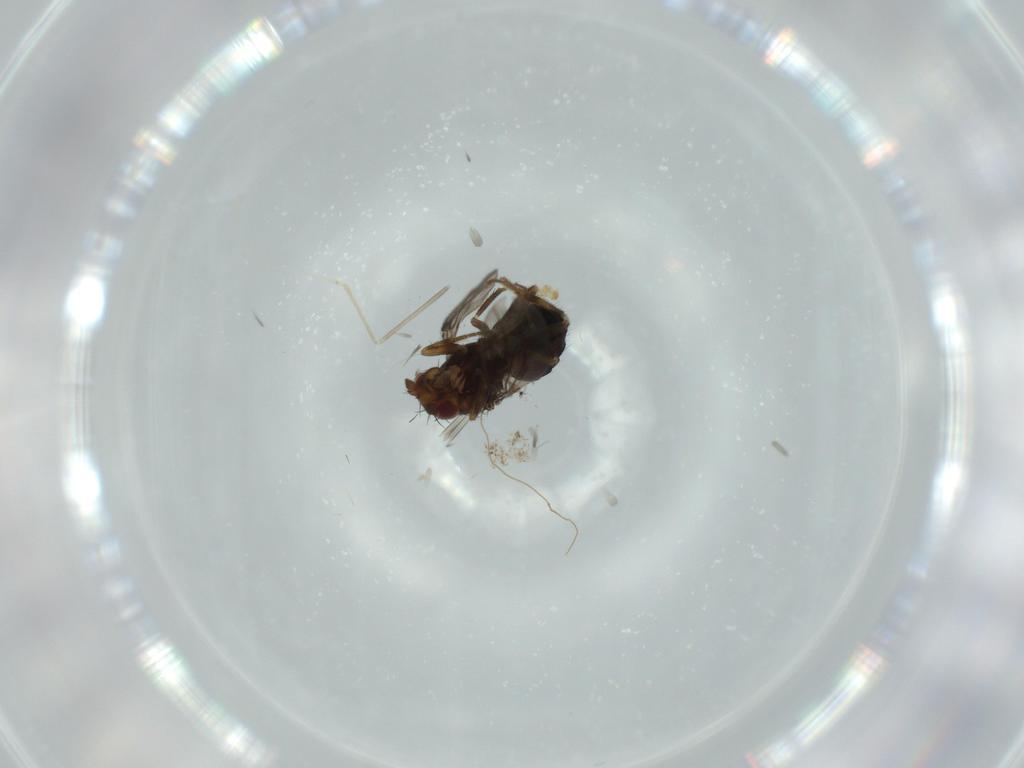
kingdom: Animalia
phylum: Arthropoda
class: Insecta
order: Diptera
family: Sphaeroceridae
